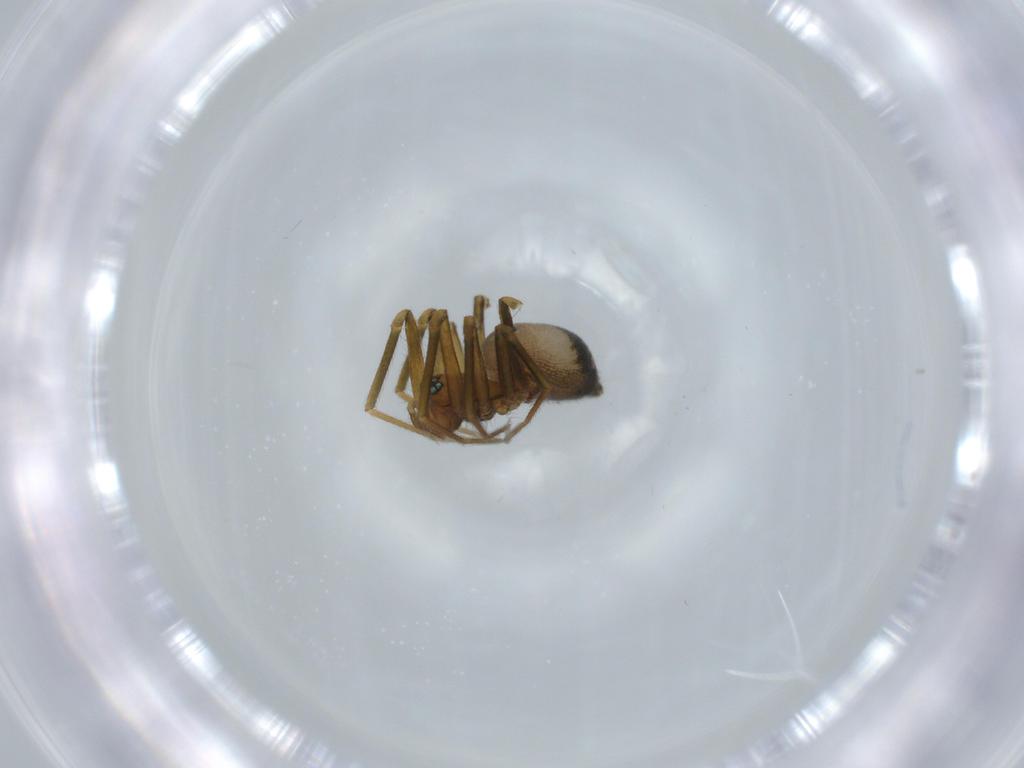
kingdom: Animalia
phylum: Arthropoda
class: Arachnida
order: Araneae
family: Linyphiidae
